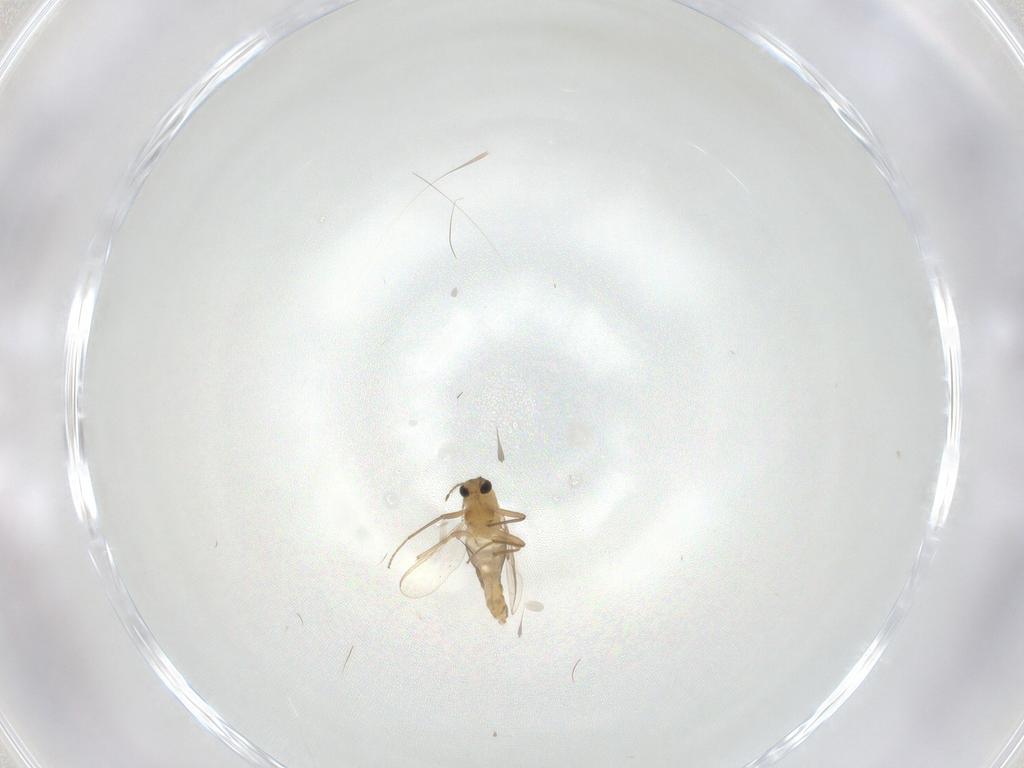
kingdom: Animalia
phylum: Arthropoda
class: Insecta
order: Diptera
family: Chironomidae
